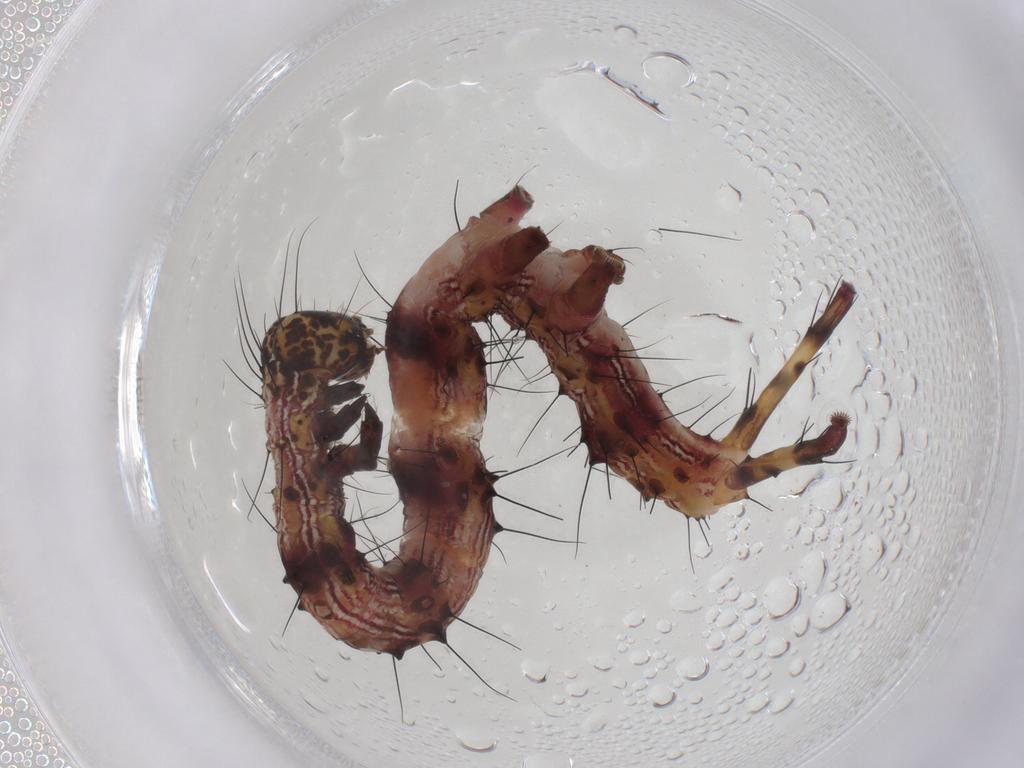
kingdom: Animalia
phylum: Arthropoda
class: Insecta
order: Lepidoptera
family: Erebidae
